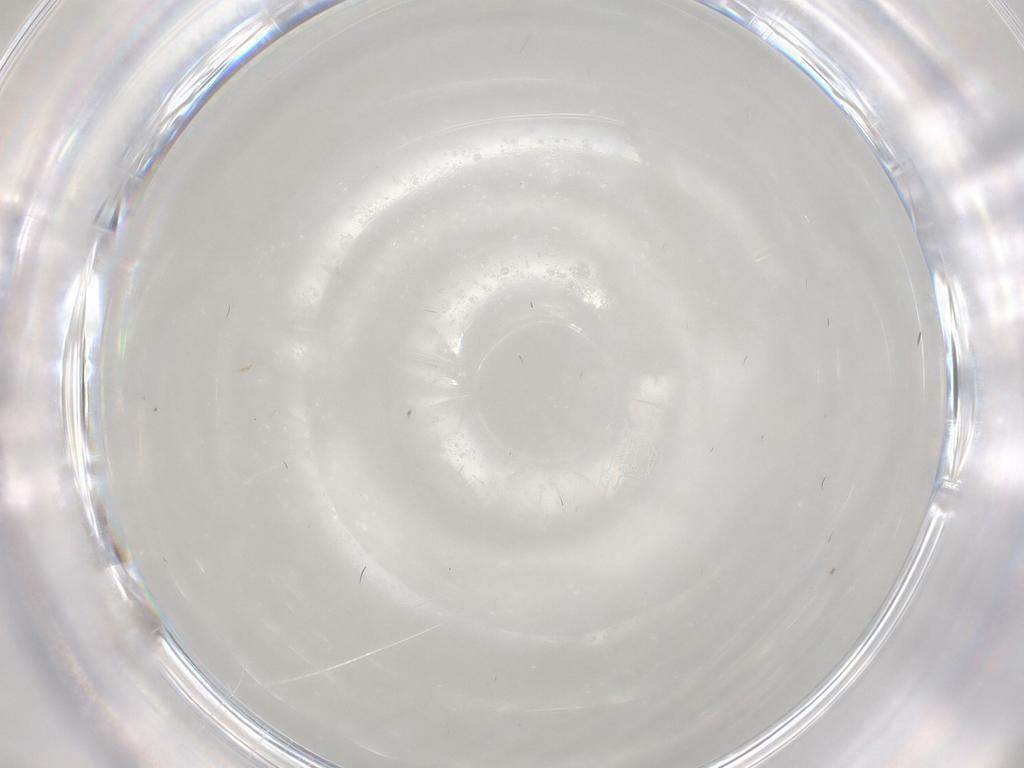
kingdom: Animalia
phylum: Arthropoda
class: Insecta
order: Diptera
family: Cecidomyiidae
